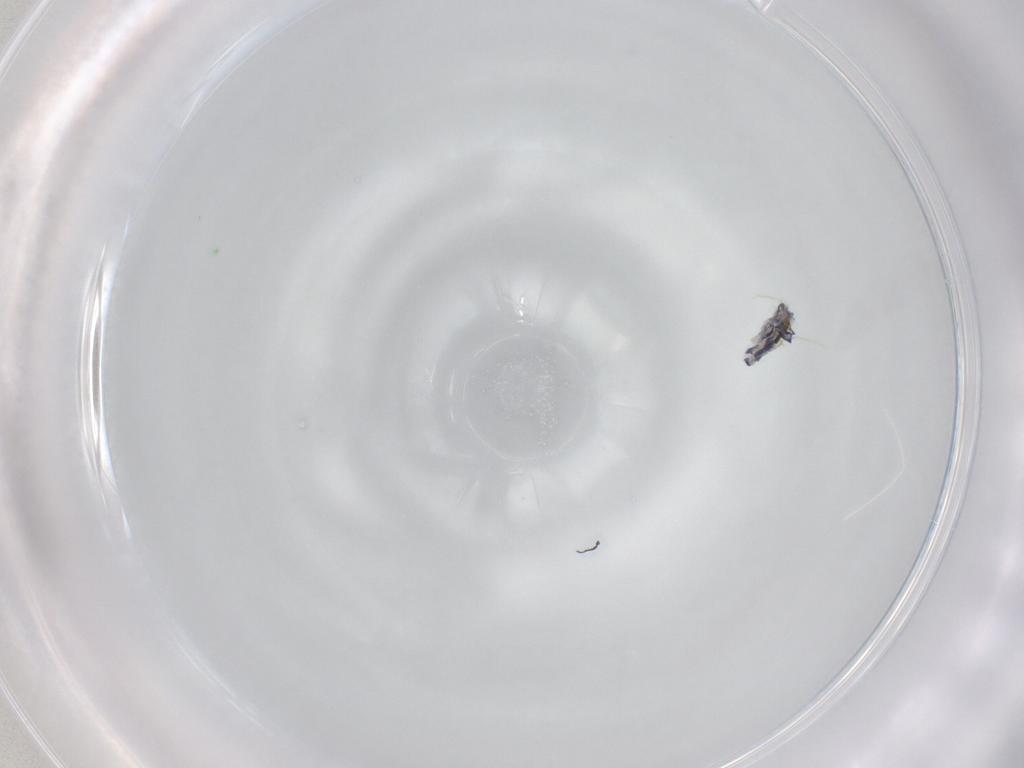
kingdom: Animalia
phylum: Arthropoda
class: Collembola
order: Entomobryomorpha
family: Entomobryidae
